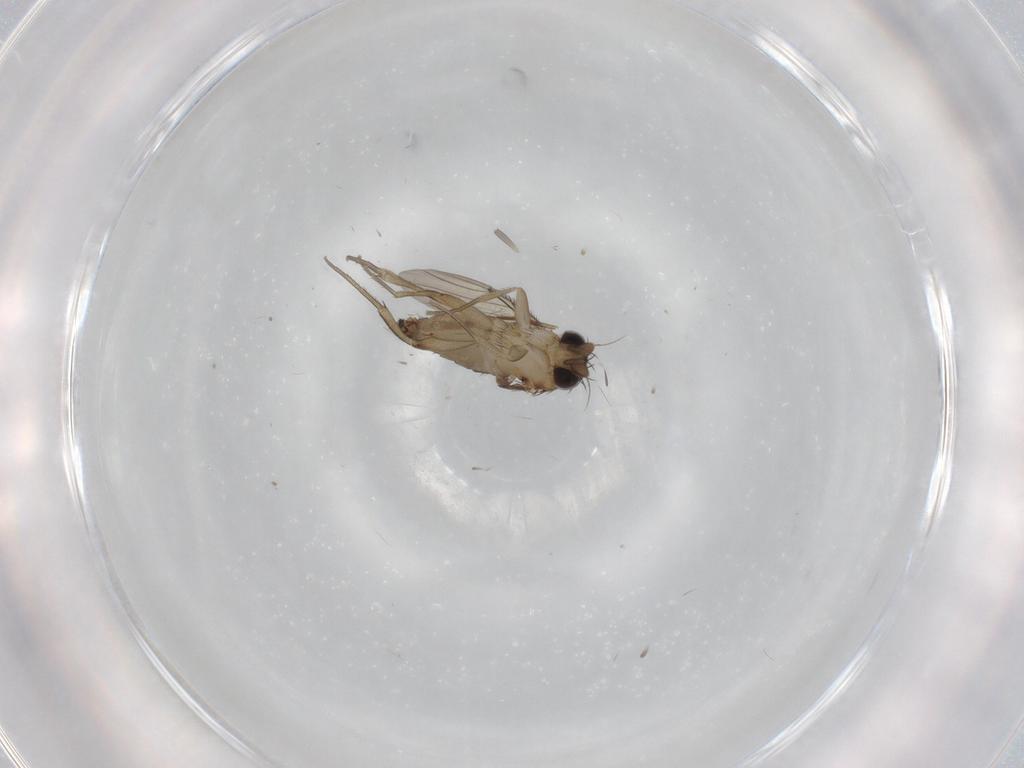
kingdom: Animalia
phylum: Arthropoda
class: Insecta
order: Diptera
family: Phoridae
